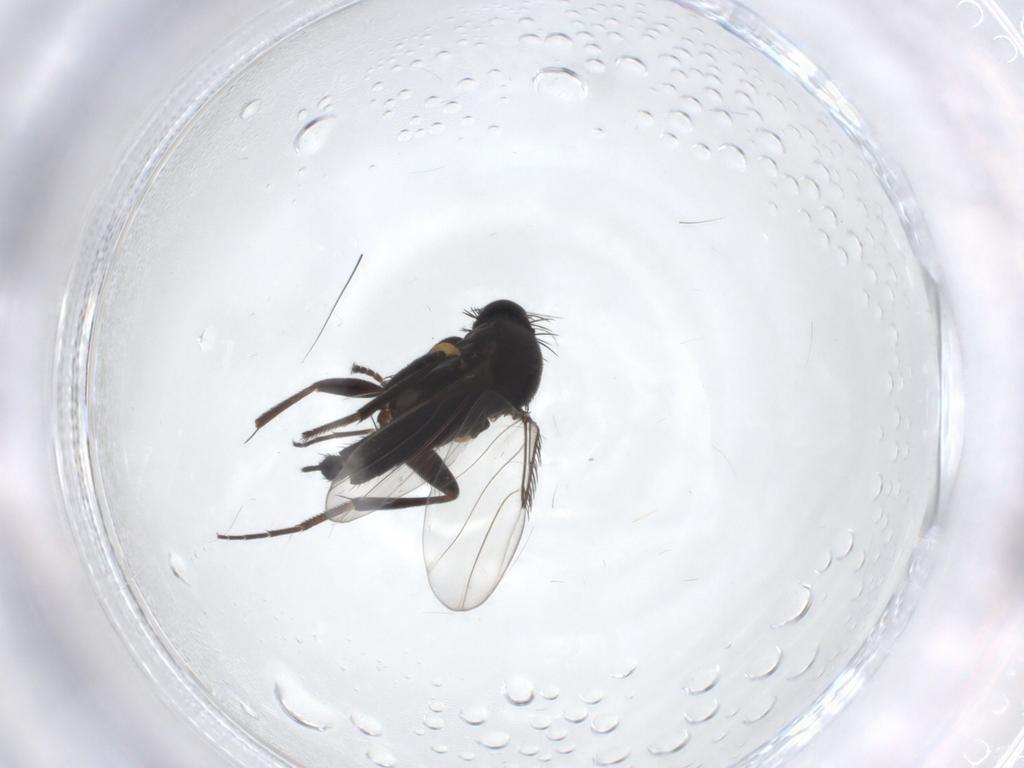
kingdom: Animalia
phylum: Arthropoda
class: Insecta
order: Diptera
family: Phoridae
